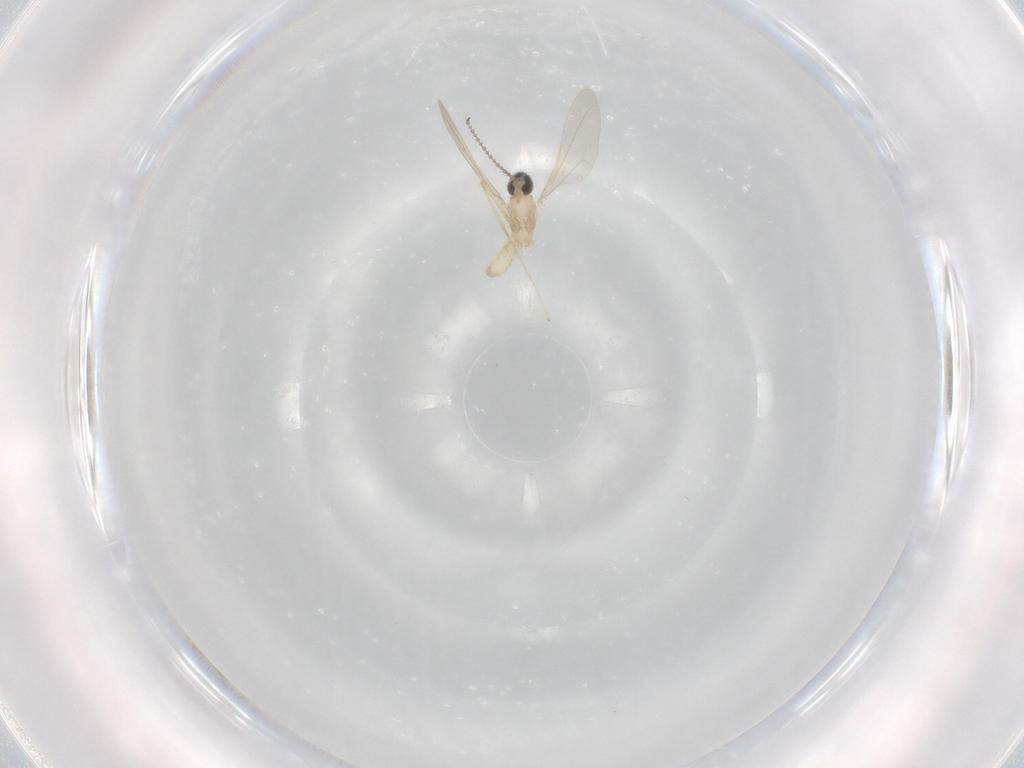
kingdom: Animalia
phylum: Arthropoda
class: Insecta
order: Diptera
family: Cecidomyiidae
